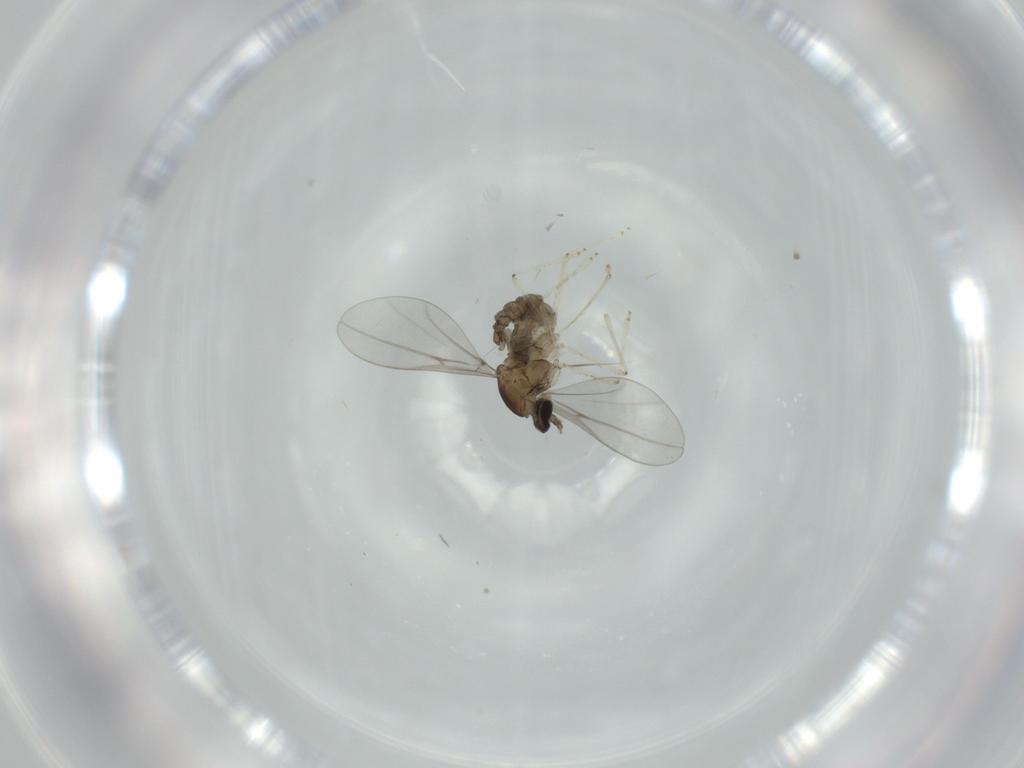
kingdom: Animalia
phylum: Arthropoda
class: Insecta
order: Diptera
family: Cecidomyiidae
